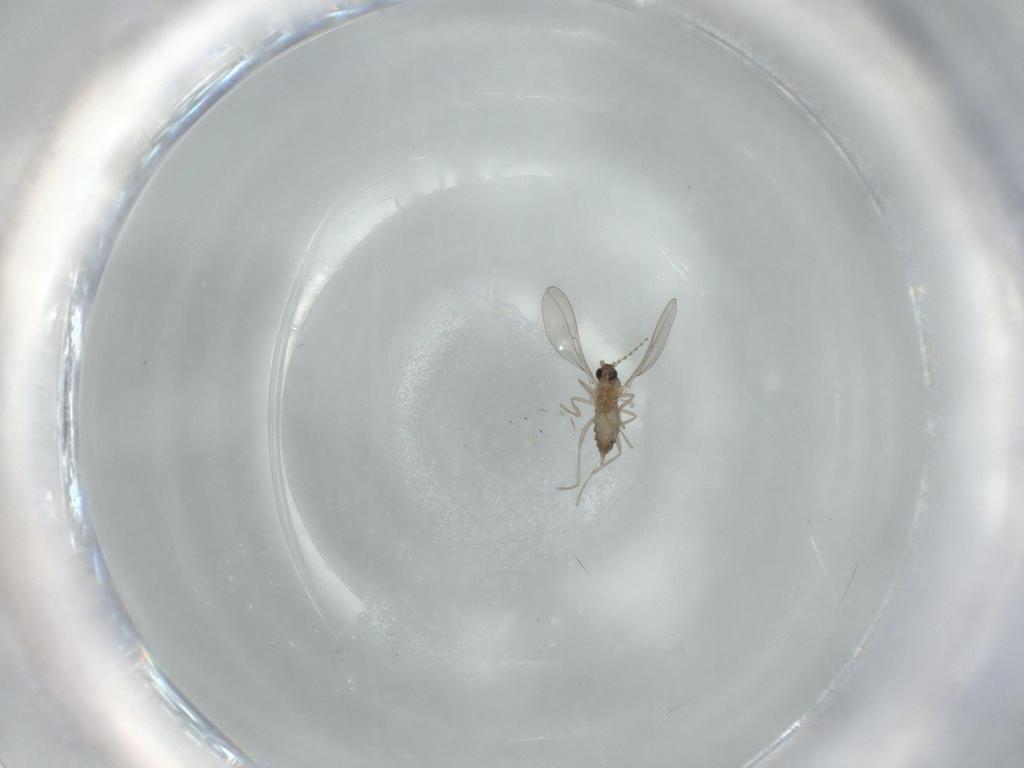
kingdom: Animalia
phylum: Arthropoda
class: Insecta
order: Diptera
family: Cecidomyiidae
